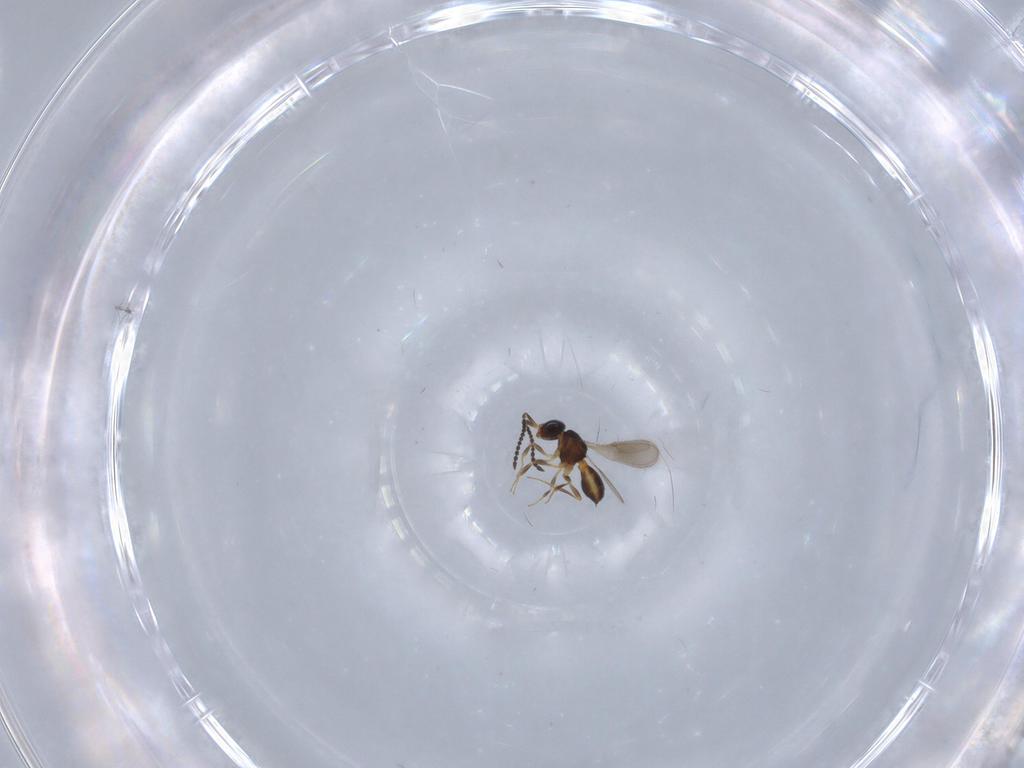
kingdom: Animalia
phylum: Arthropoda
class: Insecta
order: Hymenoptera
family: Scelionidae
